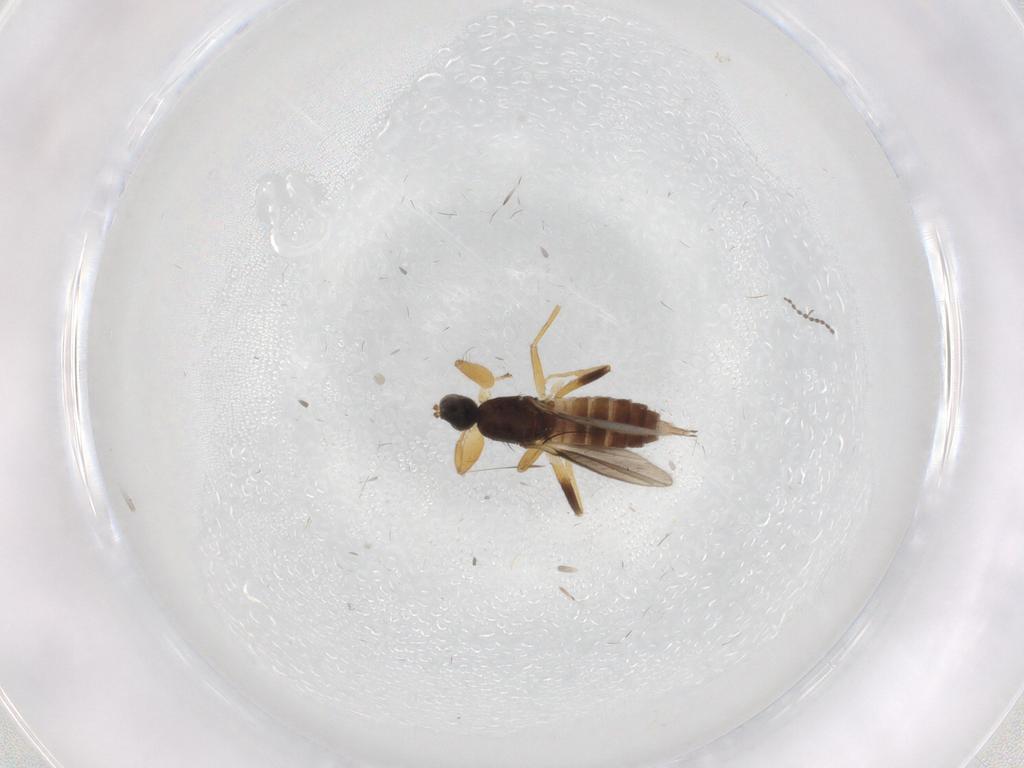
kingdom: Animalia
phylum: Arthropoda
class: Insecta
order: Diptera
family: Hybotidae
